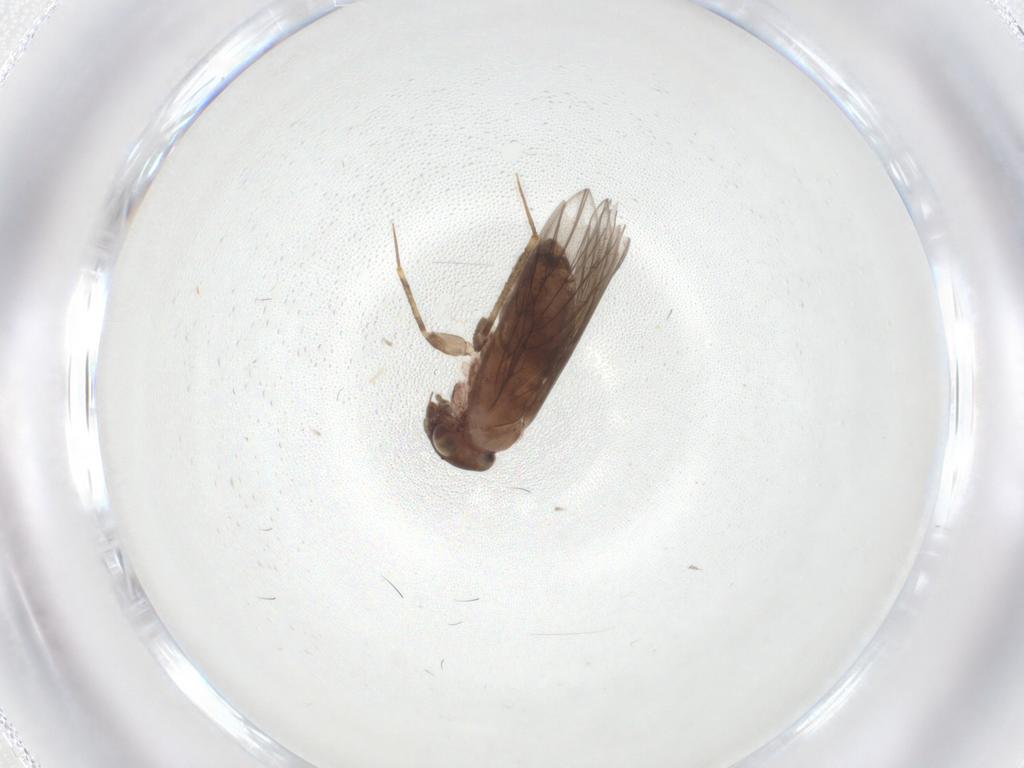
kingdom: Animalia
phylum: Arthropoda
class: Insecta
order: Psocodea
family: Lepidopsocidae
